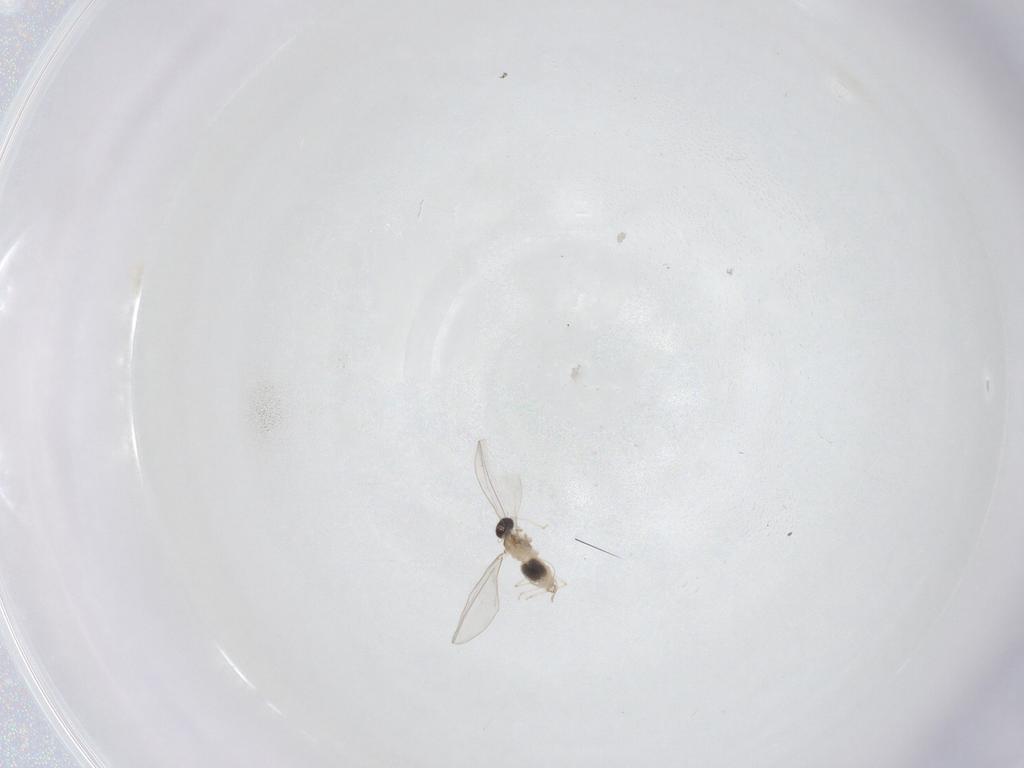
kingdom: Animalia
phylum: Arthropoda
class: Insecta
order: Diptera
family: Cecidomyiidae
